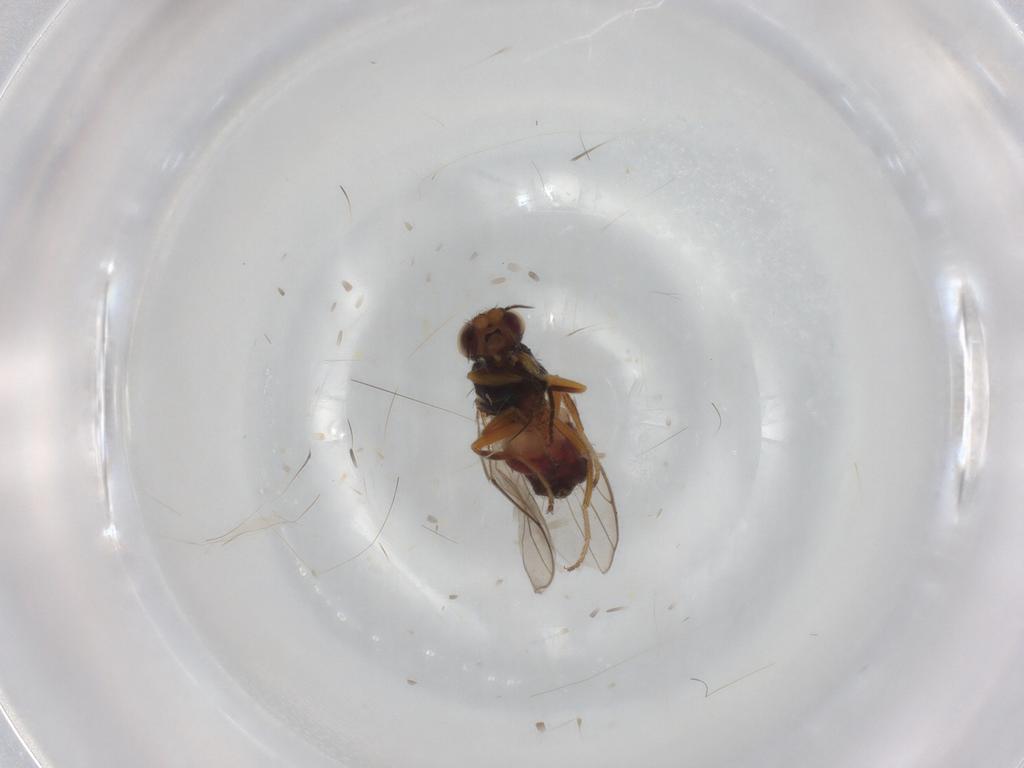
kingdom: Animalia
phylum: Arthropoda
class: Insecta
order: Diptera
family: Chloropidae
